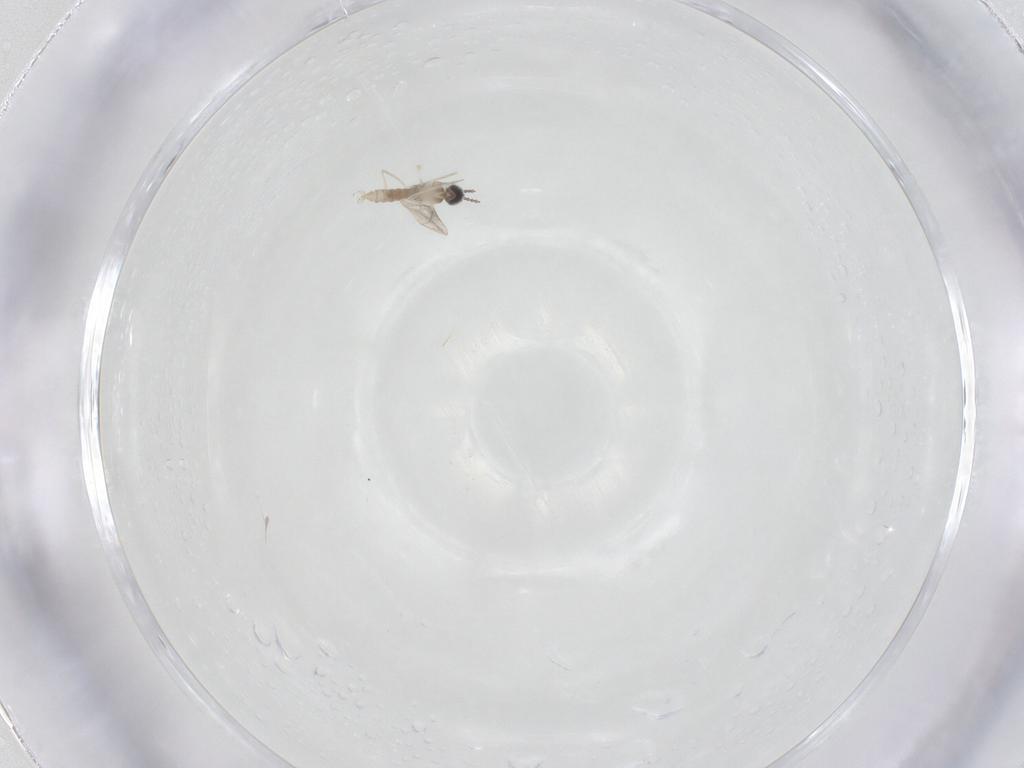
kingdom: Animalia
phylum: Arthropoda
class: Insecta
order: Diptera
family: Cecidomyiidae
